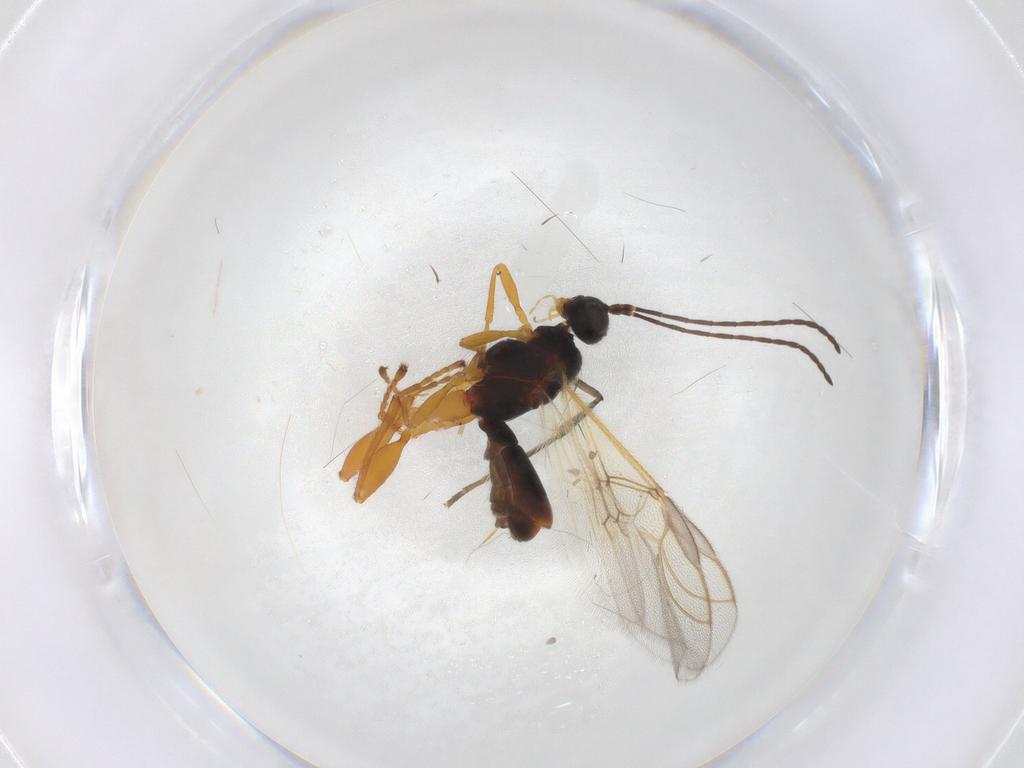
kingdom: Animalia
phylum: Arthropoda
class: Insecta
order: Hymenoptera
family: Braconidae
